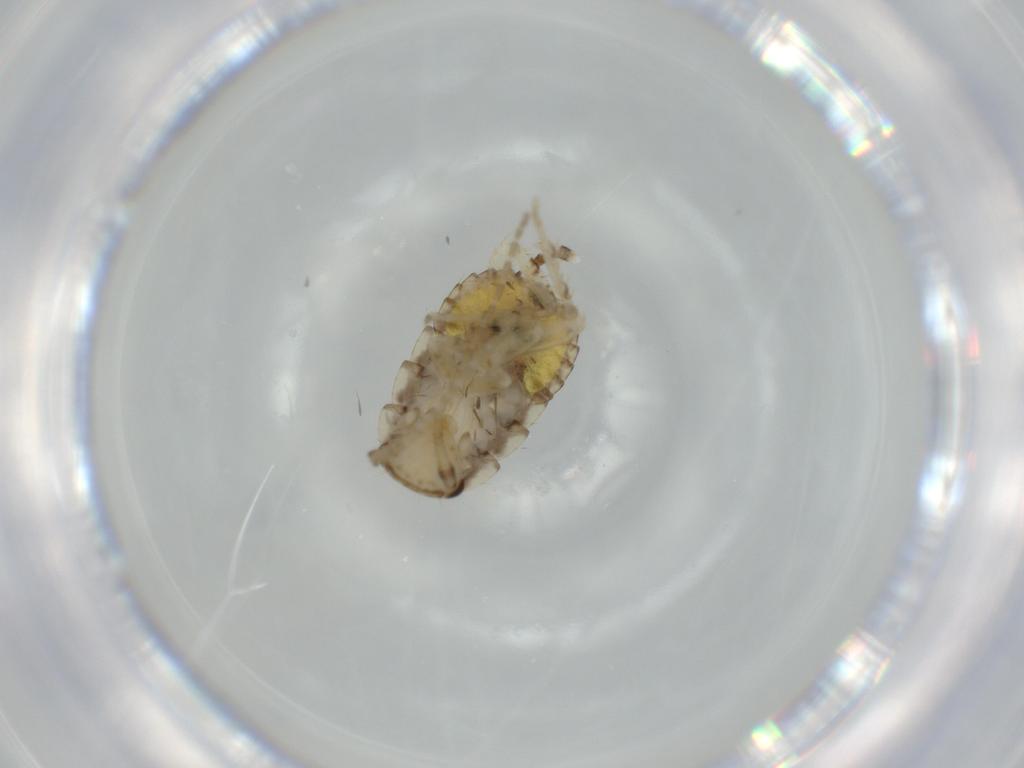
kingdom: Animalia
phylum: Arthropoda
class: Insecta
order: Blattodea
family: Ectobiidae
